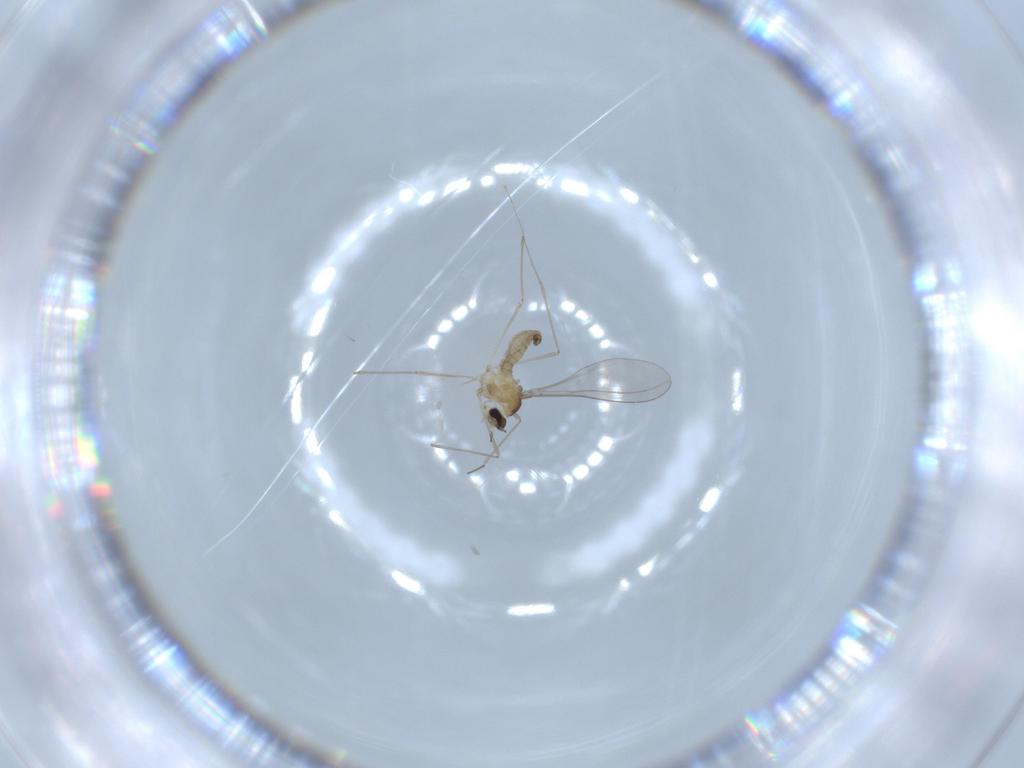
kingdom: Animalia
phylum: Arthropoda
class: Insecta
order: Diptera
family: Cecidomyiidae
